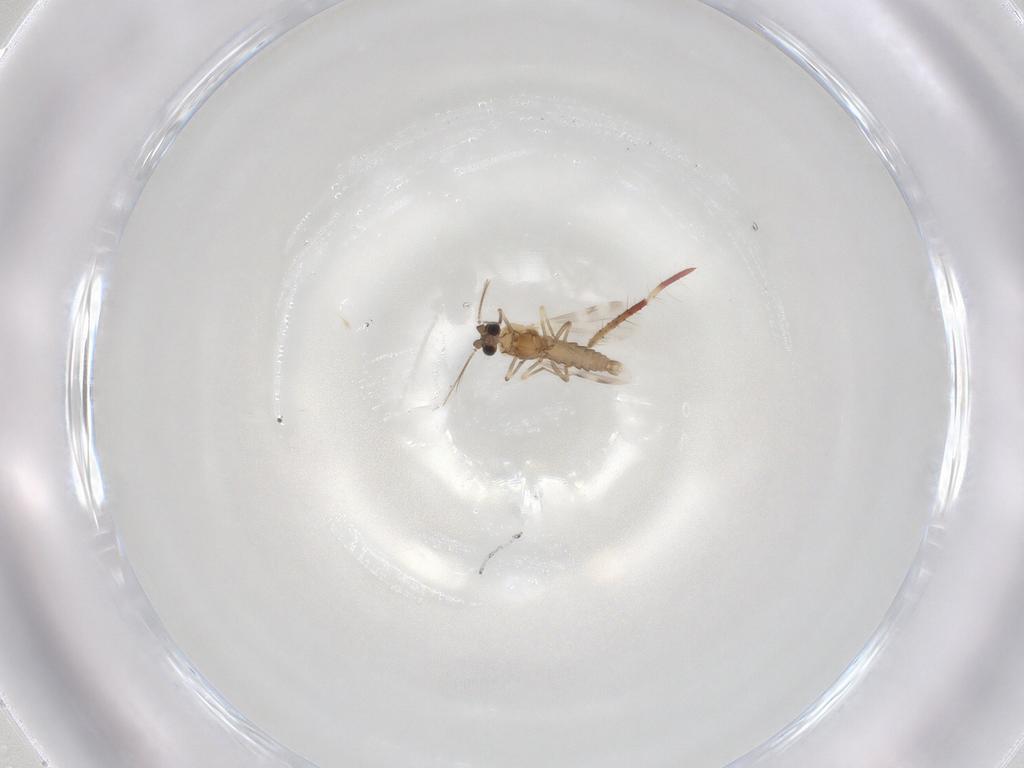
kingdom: Animalia
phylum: Arthropoda
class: Insecta
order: Diptera
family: Ceratopogonidae
